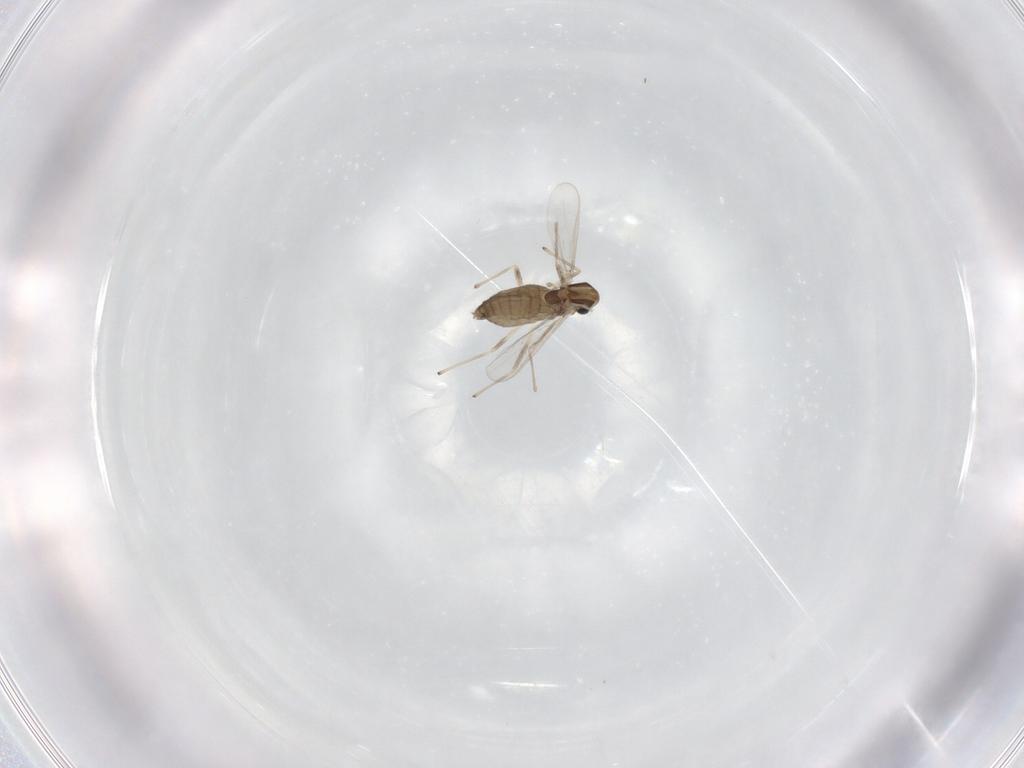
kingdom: Animalia
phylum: Arthropoda
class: Insecta
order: Diptera
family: Chironomidae
